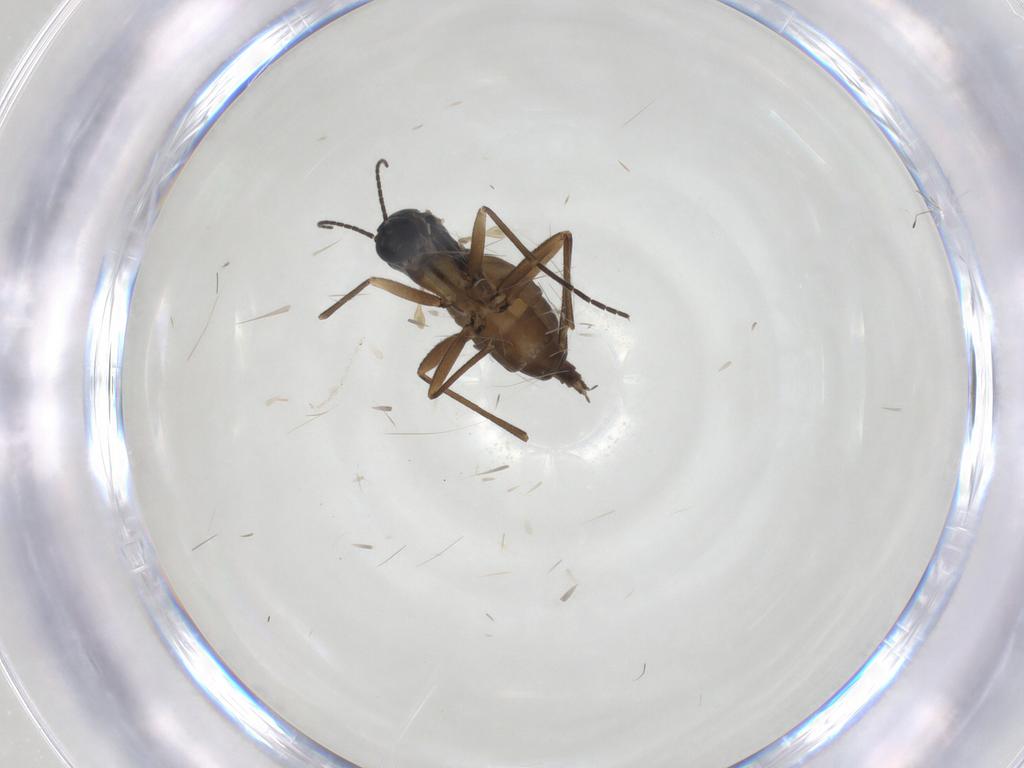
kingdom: Animalia
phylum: Arthropoda
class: Insecta
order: Diptera
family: Sciaridae
